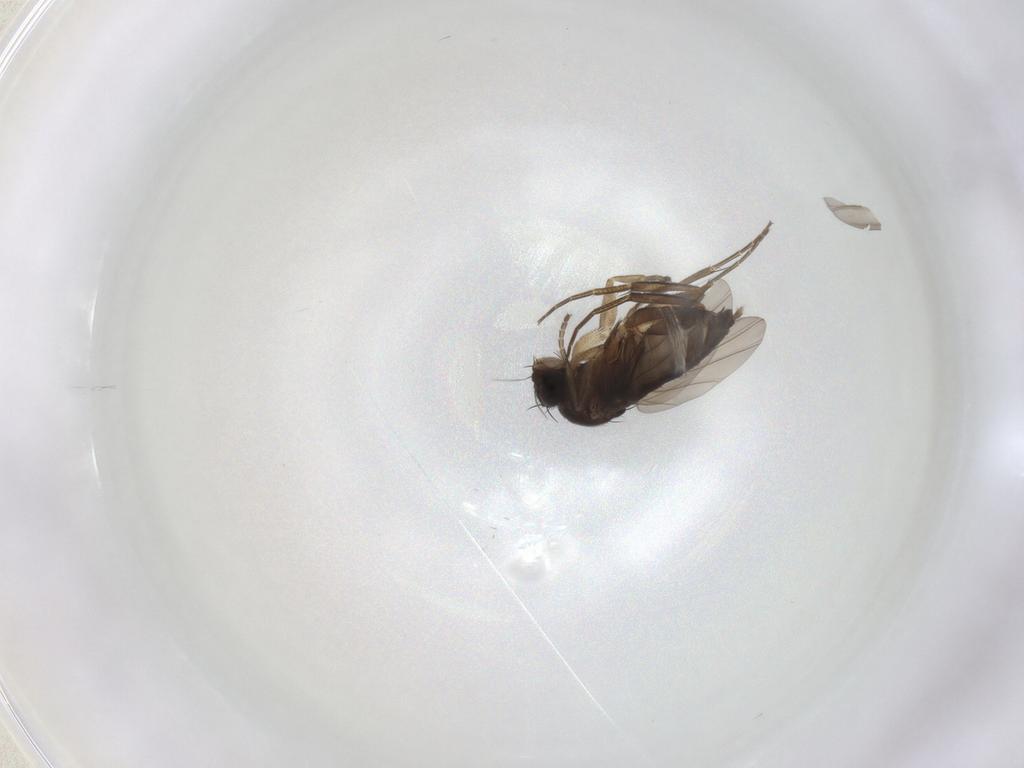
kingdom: Animalia
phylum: Arthropoda
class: Insecta
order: Diptera
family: Phoridae
